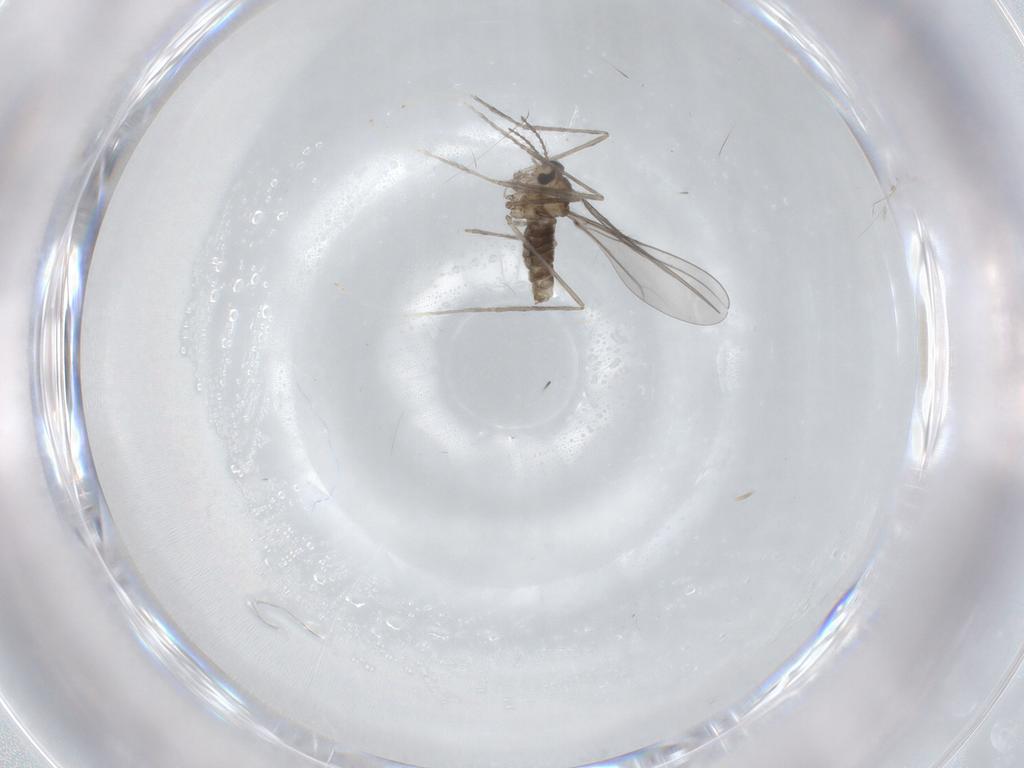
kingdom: Animalia
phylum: Arthropoda
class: Insecta
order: Diptera
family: Cecidomyiidae
